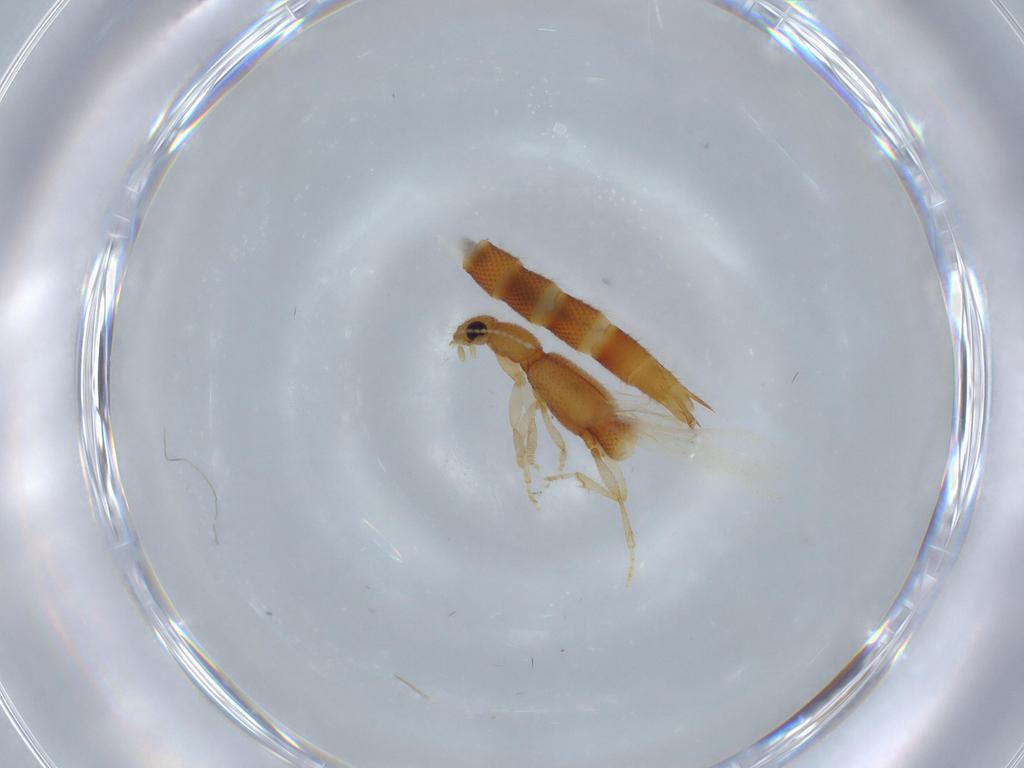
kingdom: Animalia
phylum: Arthropoda
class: Insecta
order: Coleoptera
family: Staphylinidae
